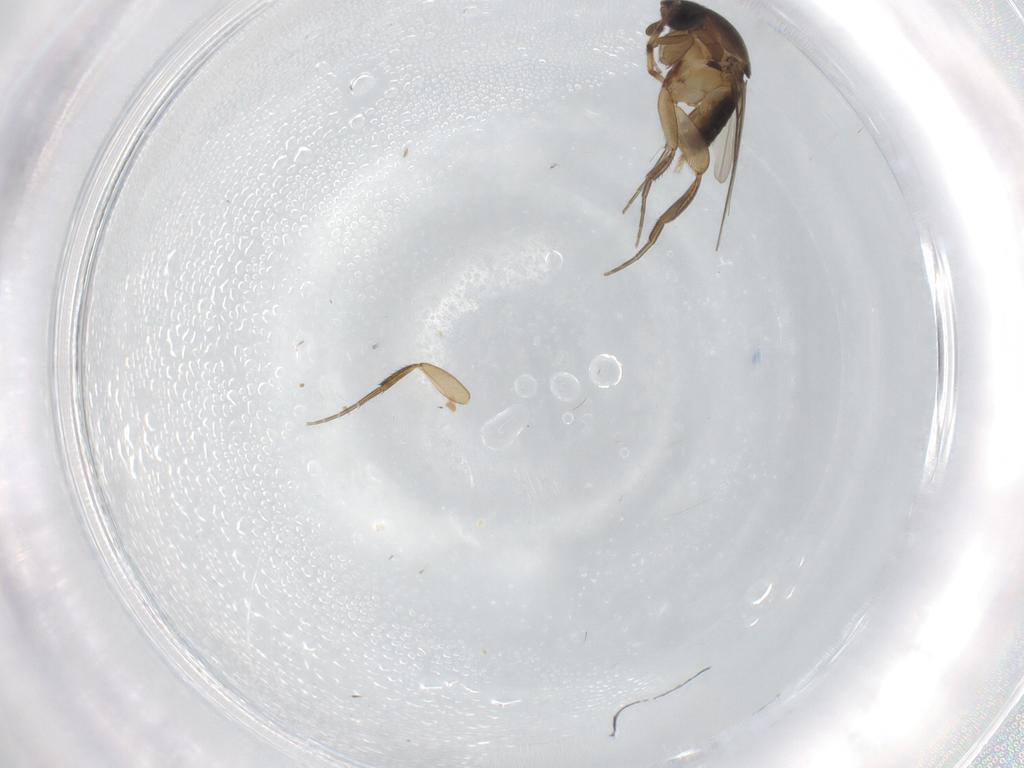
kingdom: Animalia
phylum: Arthropoda
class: Insecta
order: Diptera
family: Phoridae
